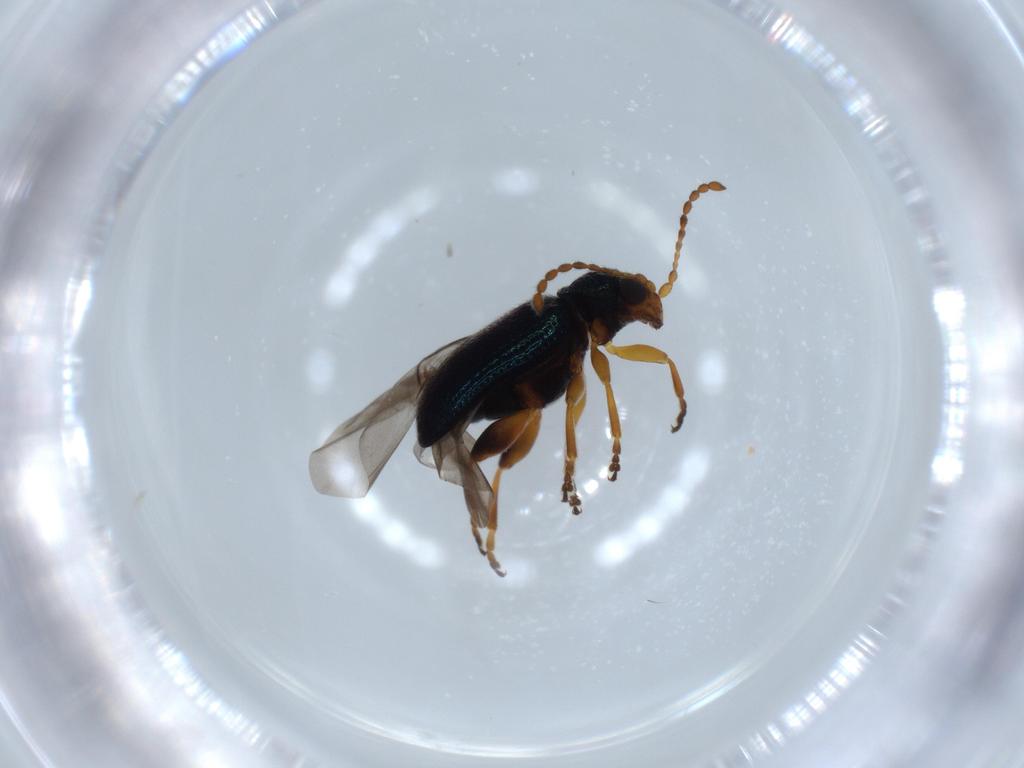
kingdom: Animalia
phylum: Arthropoda
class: Insecta
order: Coleoptera
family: Chrysomelidae
